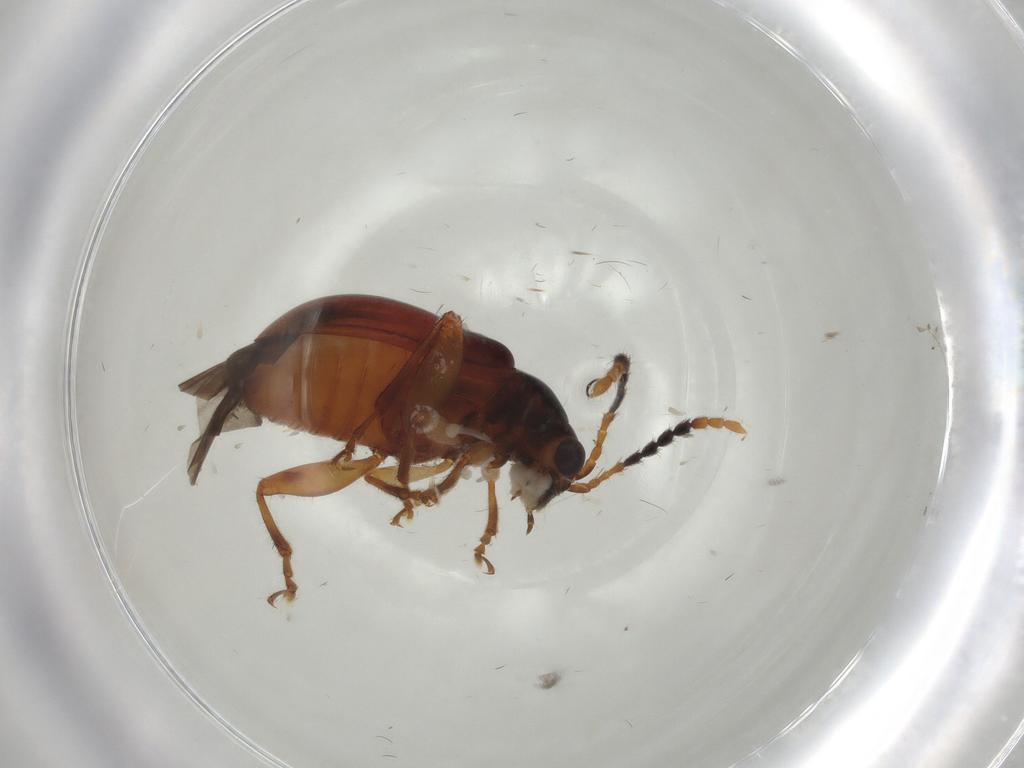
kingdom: Animalia
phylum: Arthropoda
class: Insecta
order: Coleoptera
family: Chrysomelidae
